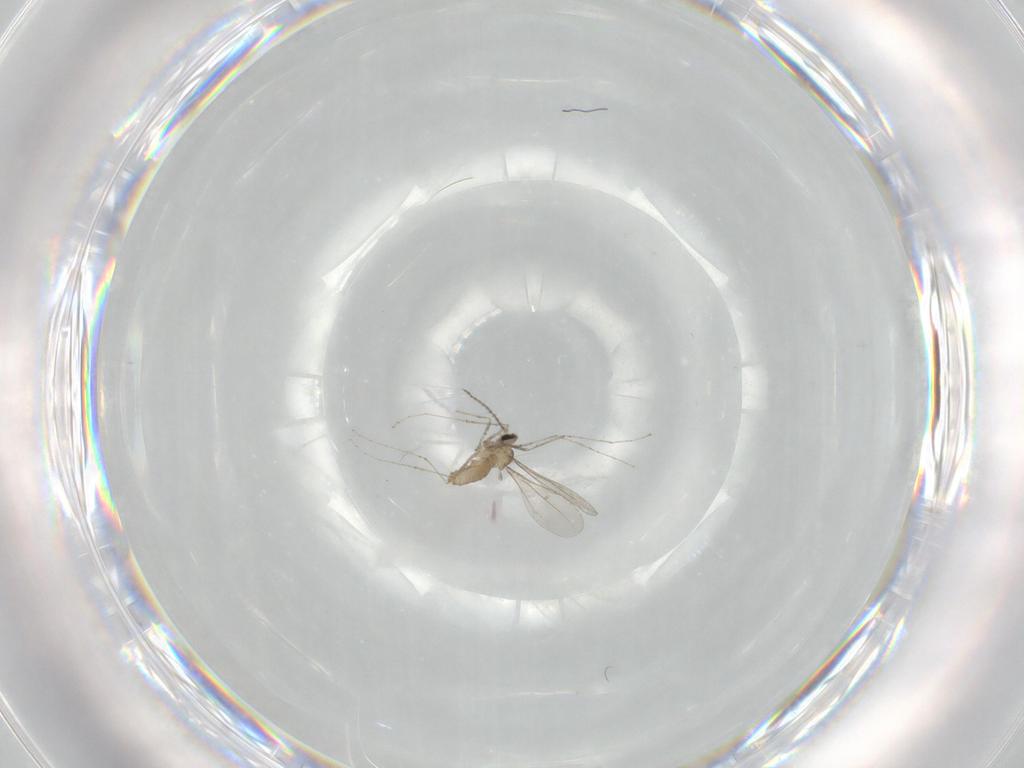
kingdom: Animalia
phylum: Arthropoda
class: Insecta
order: Diptera
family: Cecidomyiidae
